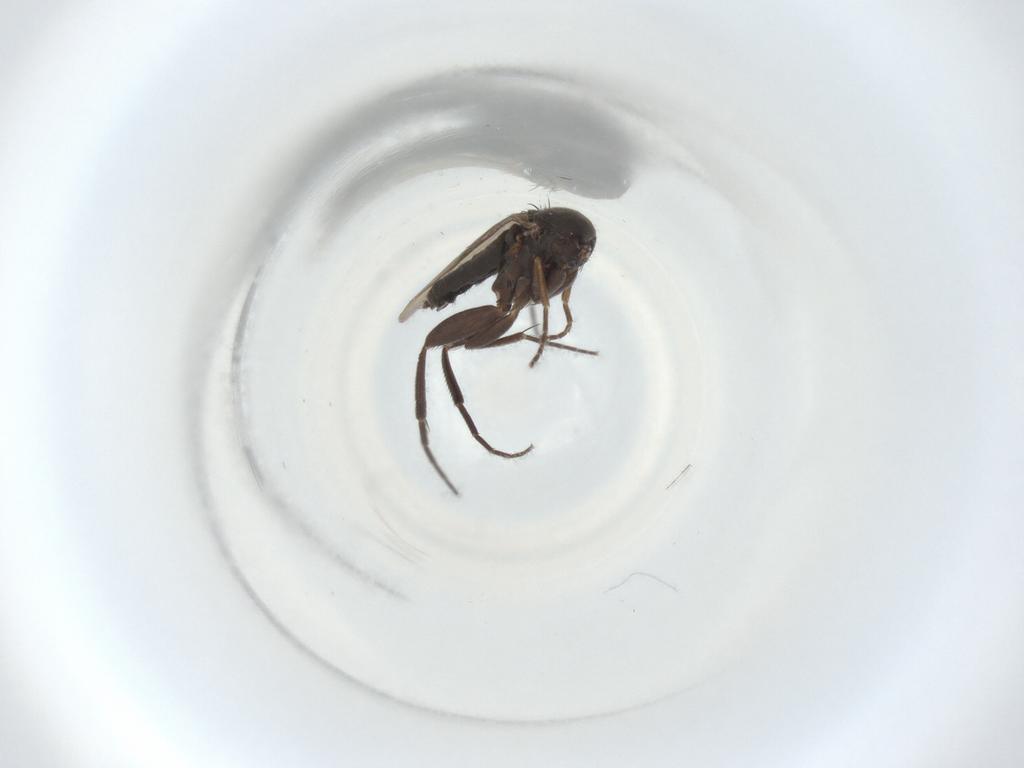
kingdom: Animalia
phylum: Arthropoda
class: Insecta
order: Diptera
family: Phoridae
